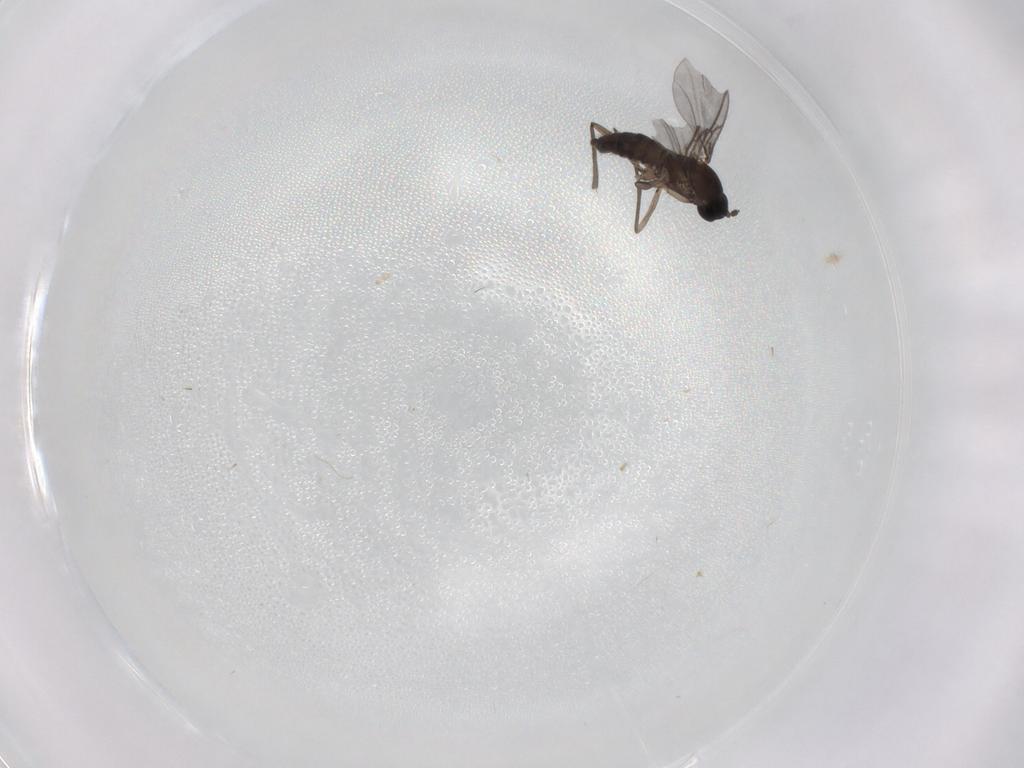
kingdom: Animalia
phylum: Arthropoda
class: Insecta
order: Diptera
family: Dolichopodidae
